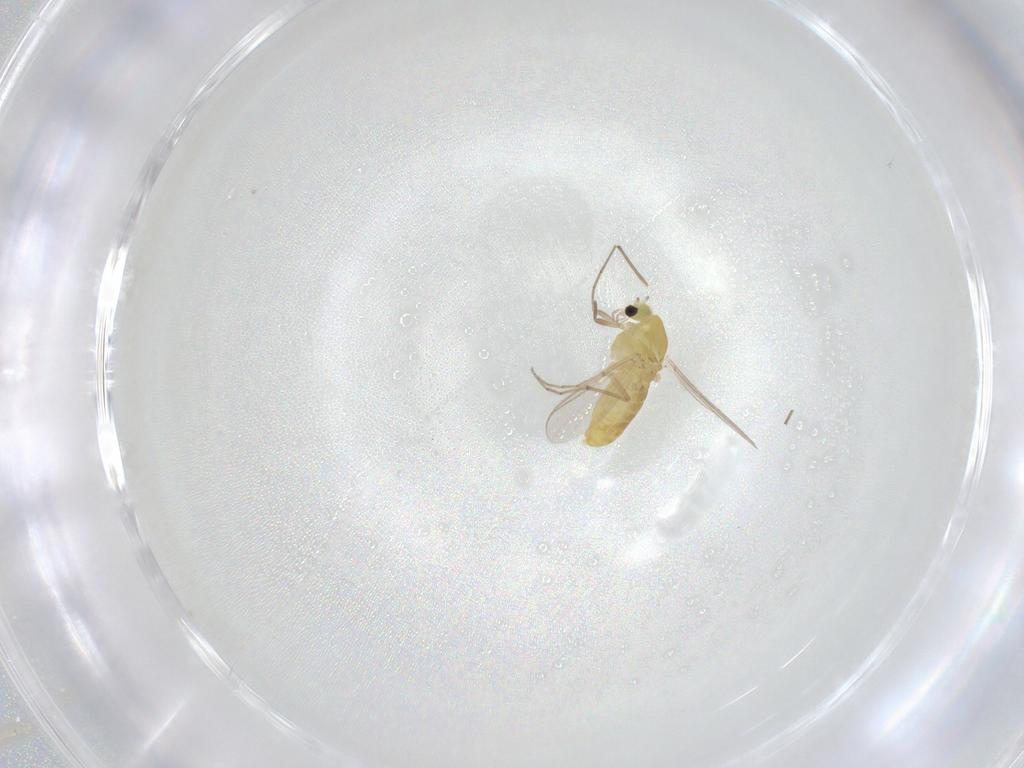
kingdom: Animalia
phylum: Arthropoda
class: Insecta
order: Diptera
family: Chironomidae
